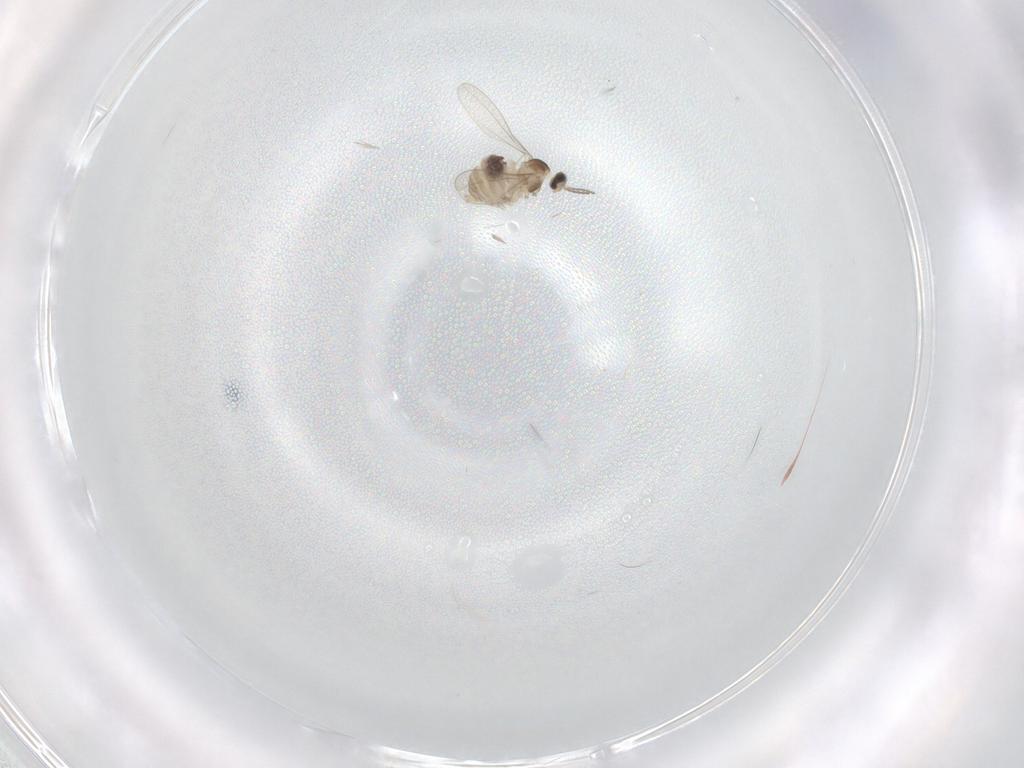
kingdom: Animalia
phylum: Arthropoda
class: Insecta
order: Diptera
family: Cecidomyiidae
